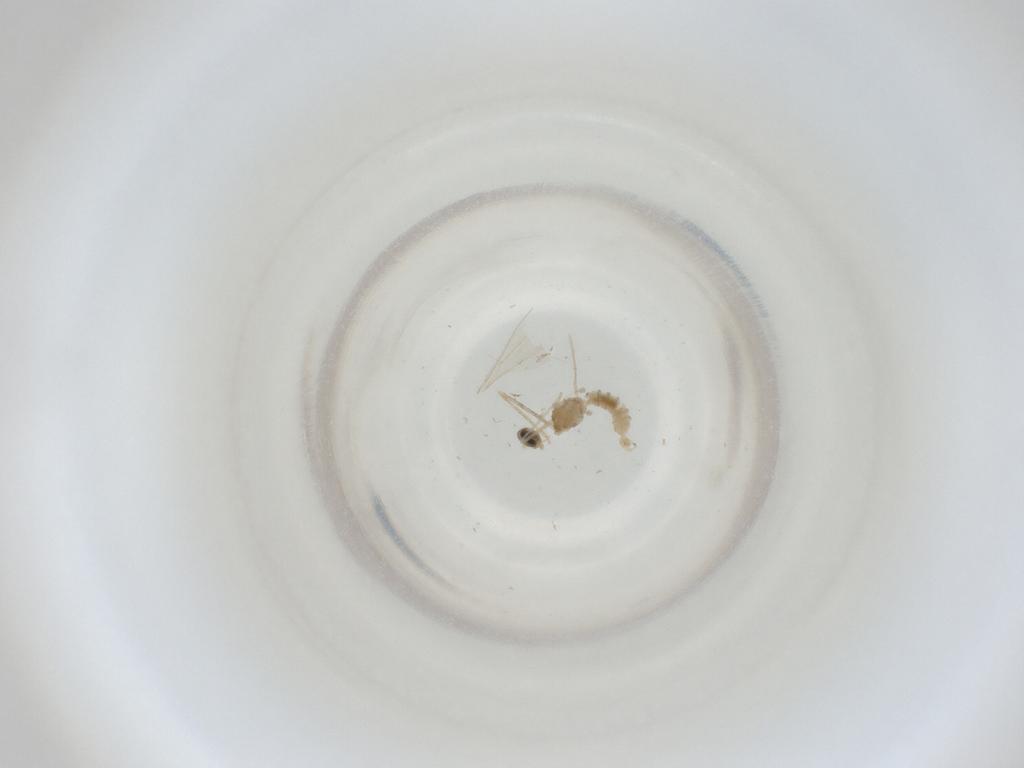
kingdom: Animalia
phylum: Arthropoda
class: Insecta
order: Diptera
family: Cecidomyiidae
